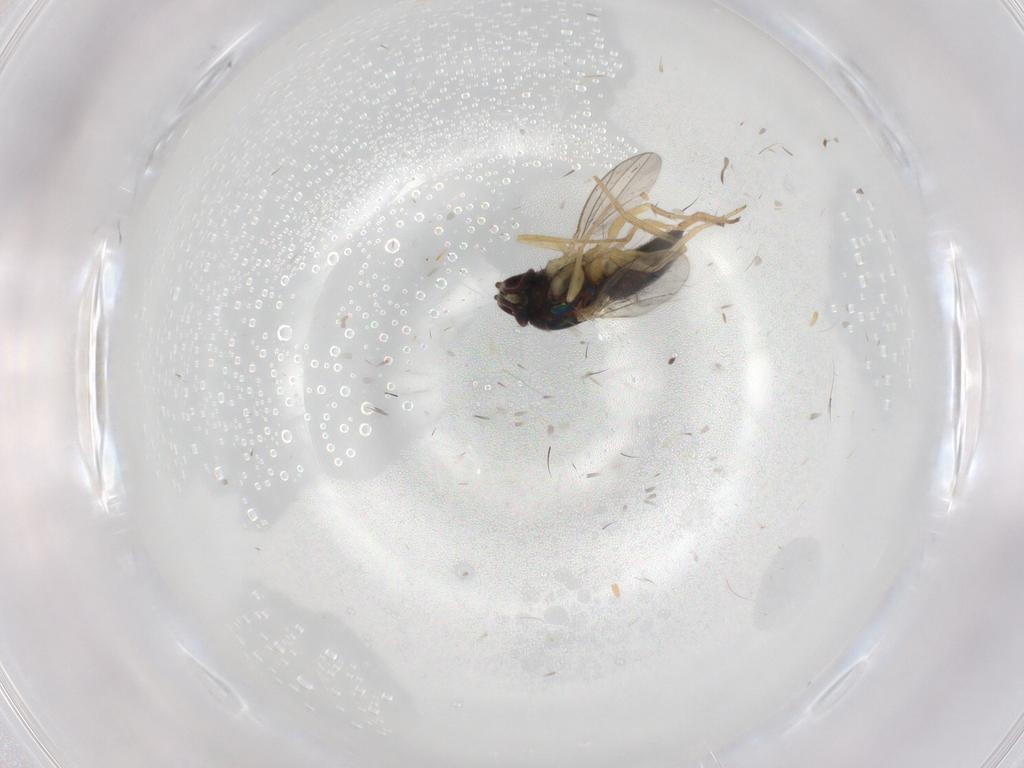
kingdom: Animalia
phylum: Arthropoda
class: Insecta
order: Diptera
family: Dolichopodidae
